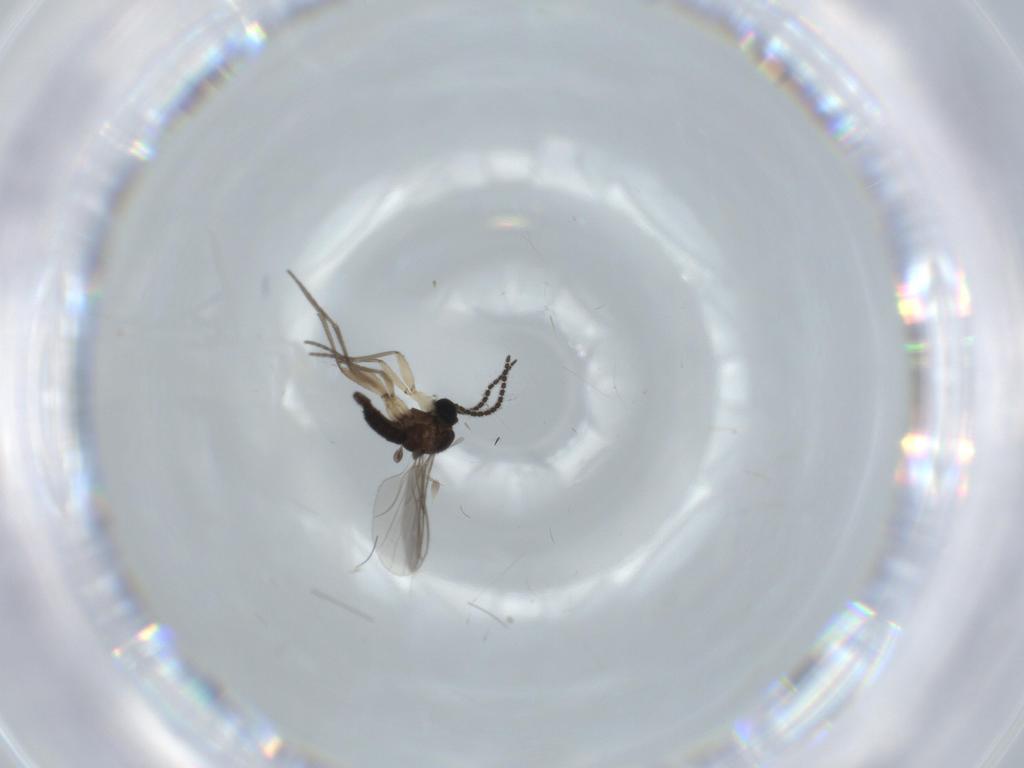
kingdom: Animalia
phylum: Arthropoda
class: Insecta
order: Diptera
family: Sciaridae
